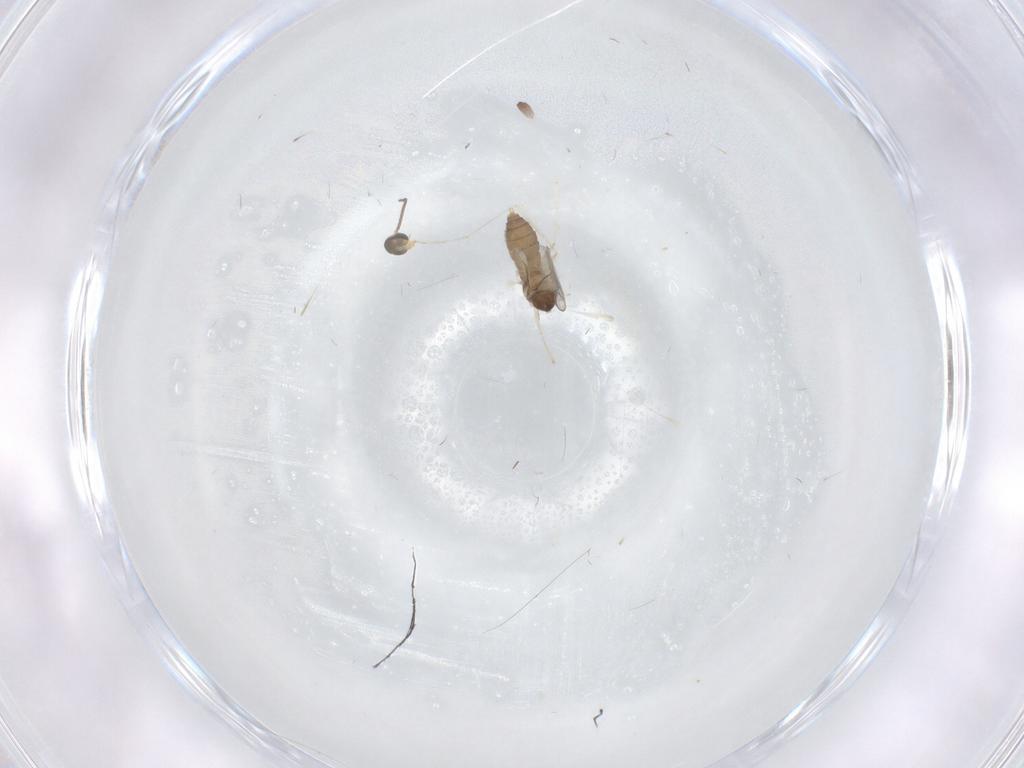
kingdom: Animalia
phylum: Arthropoda
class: Insecta
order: Diptera
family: Cecidomyiidae
